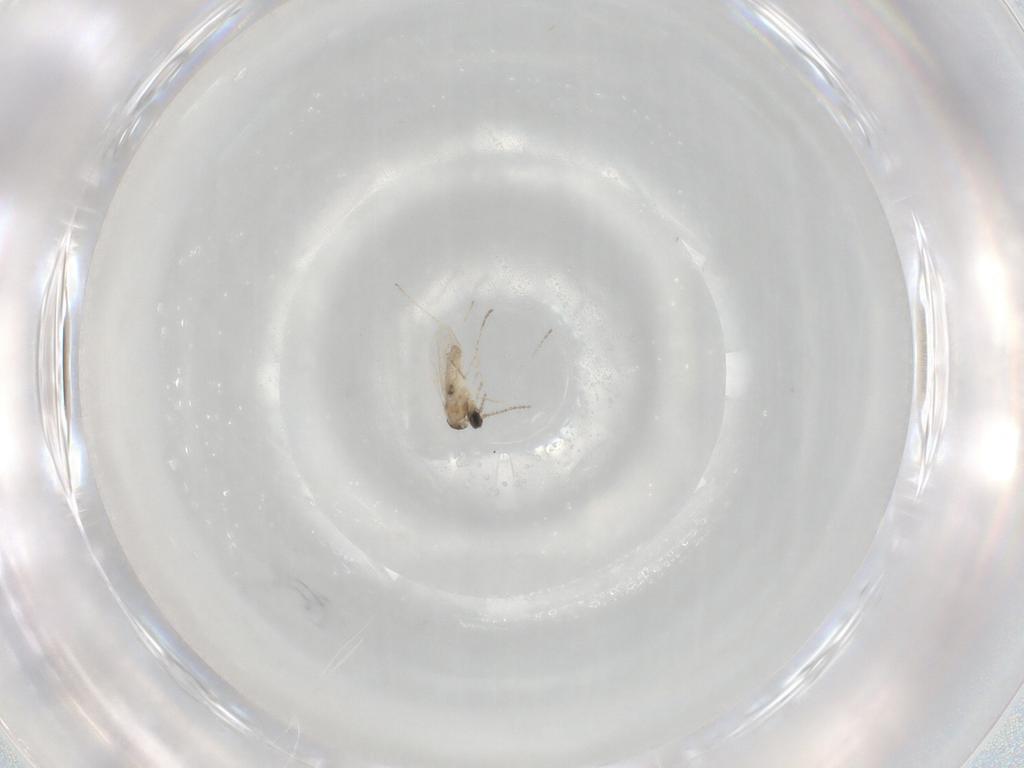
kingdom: Animalia
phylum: Arthropoda
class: Insecta
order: Diptera
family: Cecidomyiidae
